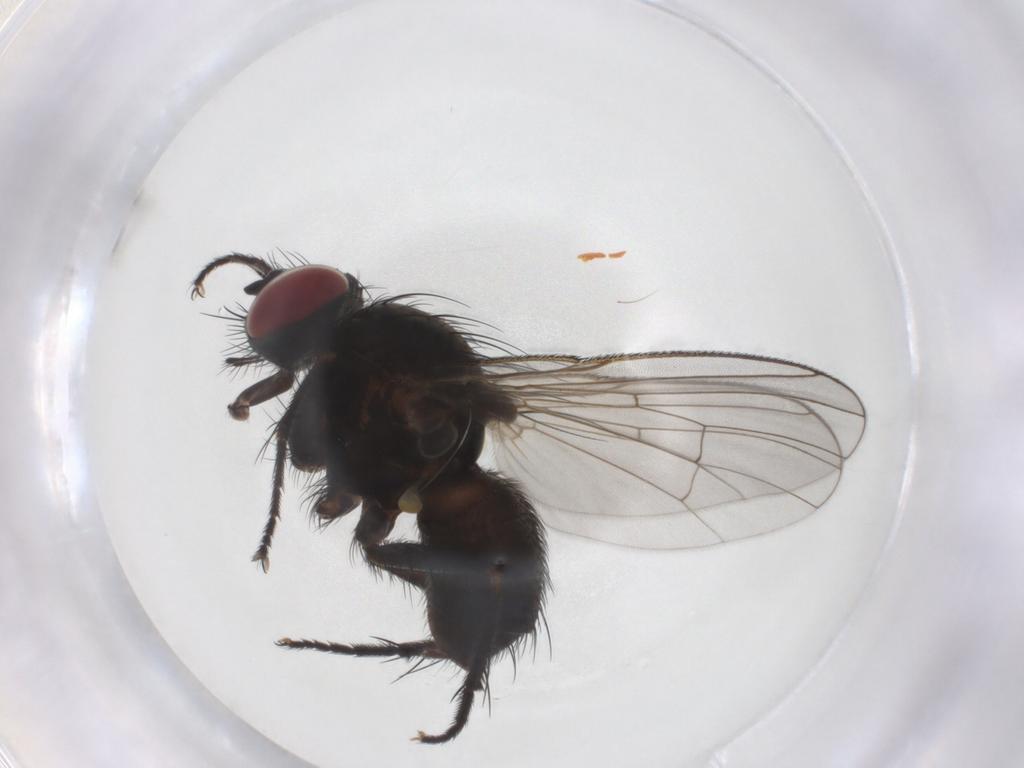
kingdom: Animalia
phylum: Arthropoda
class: Insecta
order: Diptera
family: Muscidae
